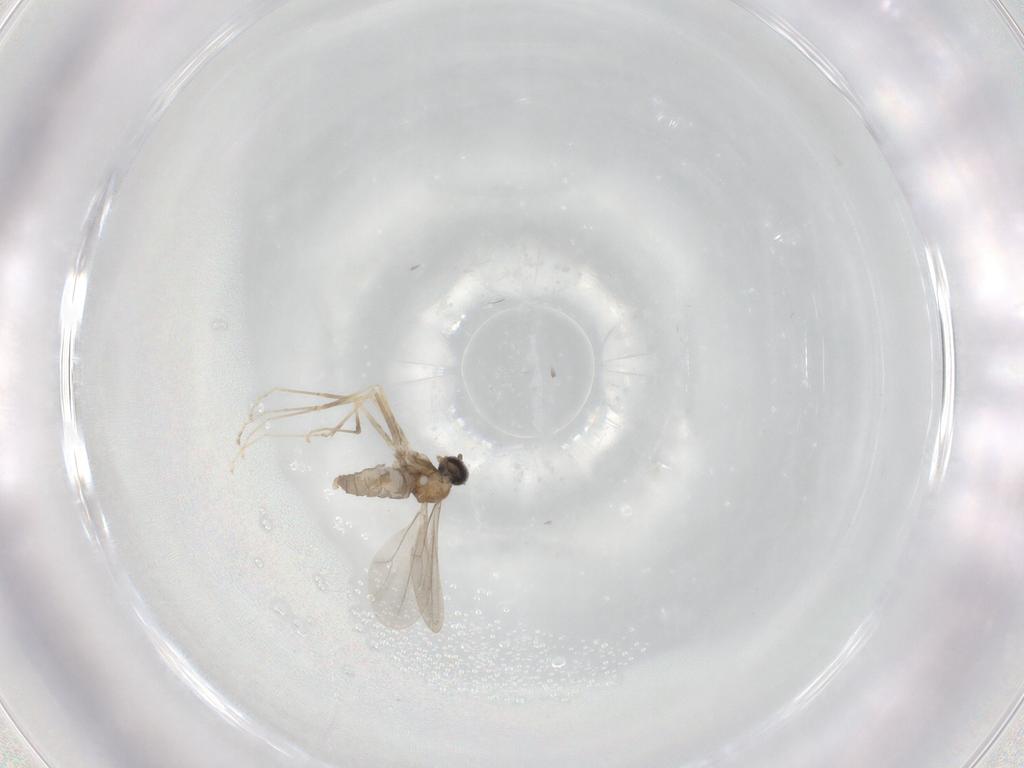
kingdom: Animalia
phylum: Arthropoda
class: Insecta
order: Diptera
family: Cecidomyiidae
